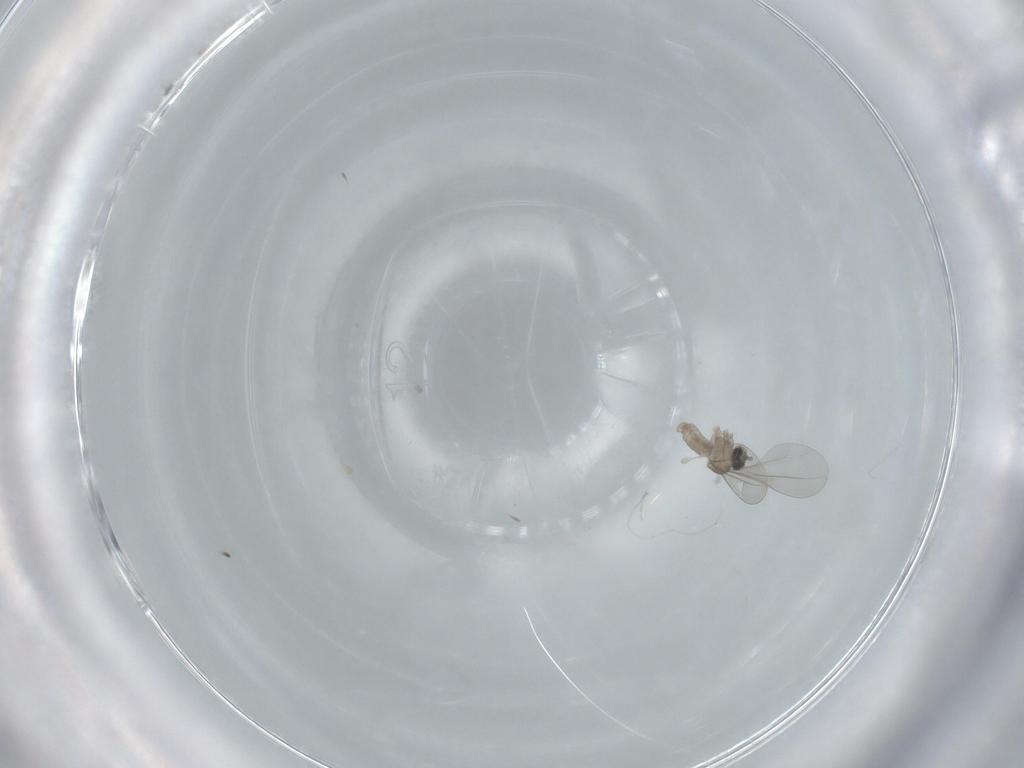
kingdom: Animalia
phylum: Arthropoda
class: Insecta
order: Diptera
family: Cecidomyiidae
